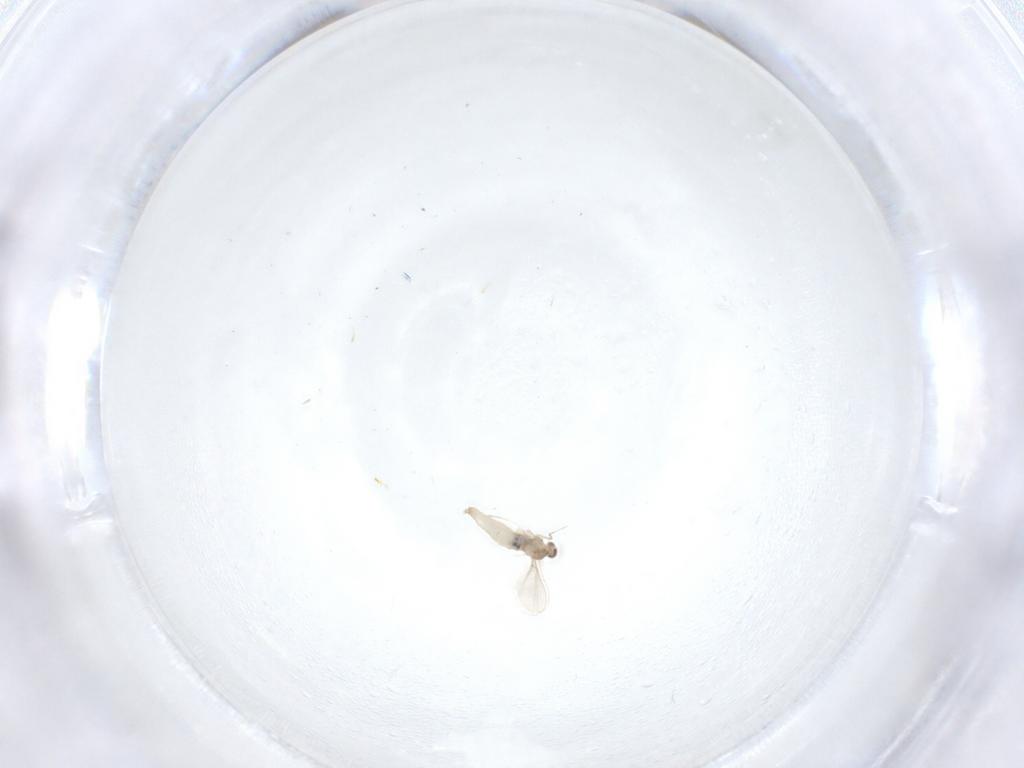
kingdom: Animalia
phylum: Arthropoda
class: Insecta
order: Diptera
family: Cecidomyiidae
